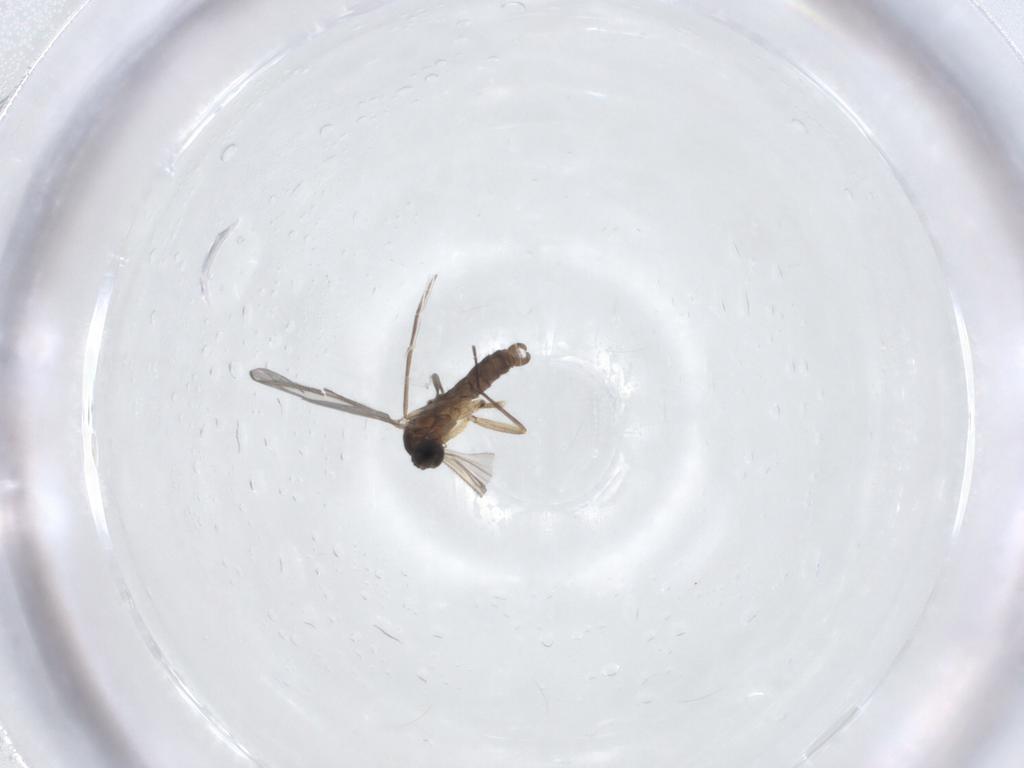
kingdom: Animalia
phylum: Arthropoda
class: Insecta
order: Diptera
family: Sciaridae
